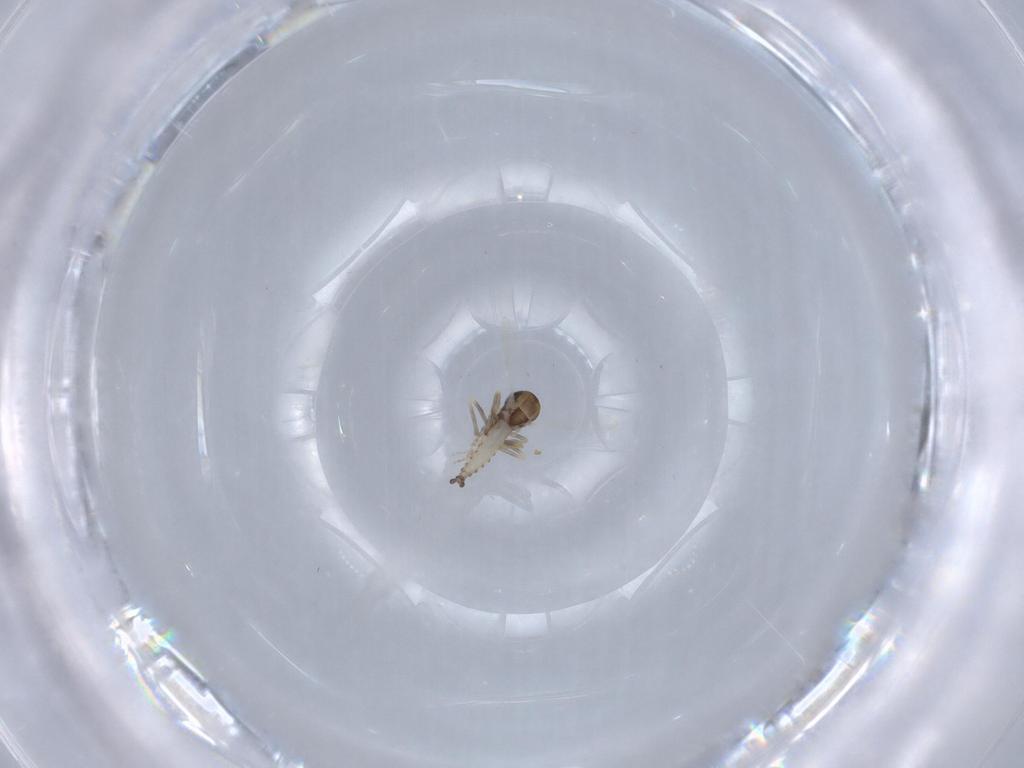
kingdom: Animalia
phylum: Arthropoda
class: Insecta
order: Diptera
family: Ceratopogonidae
